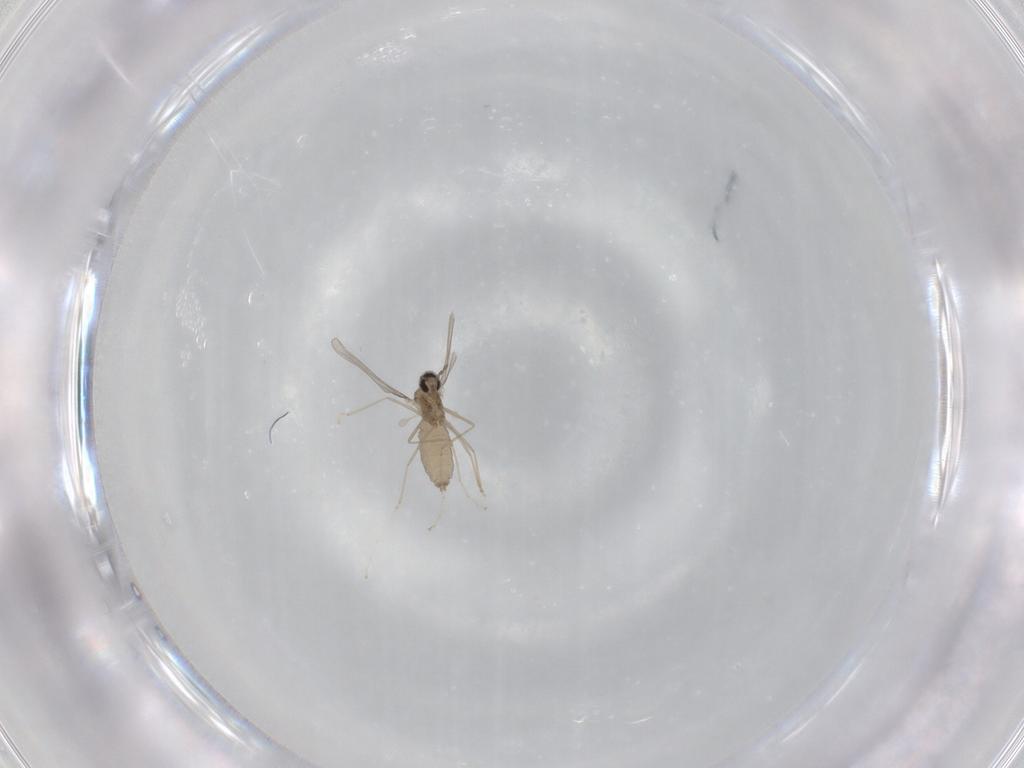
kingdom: Animalia
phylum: Arthropoda
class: Insecta
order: Diptera
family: Cecidomyiidae
